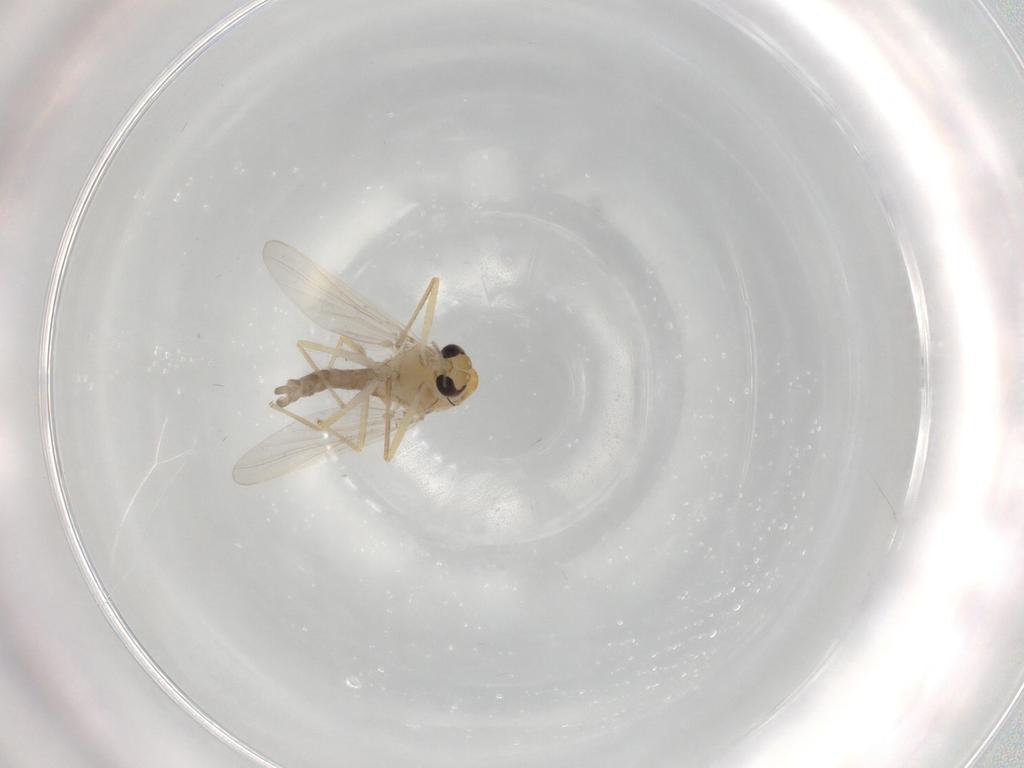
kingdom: Animalia
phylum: Arthropoda
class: Insecta
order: Diptera
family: Chironomidae
